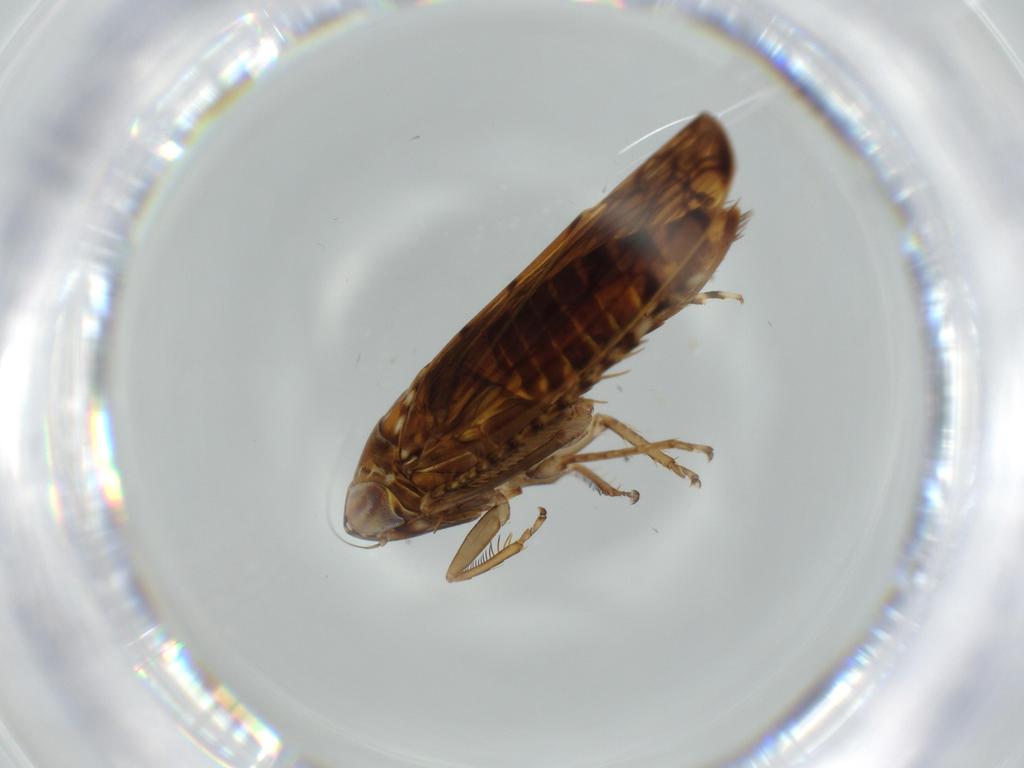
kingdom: Animalia
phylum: Arthropoda
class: Insecta
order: Hemiptera
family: Cicadellidae
